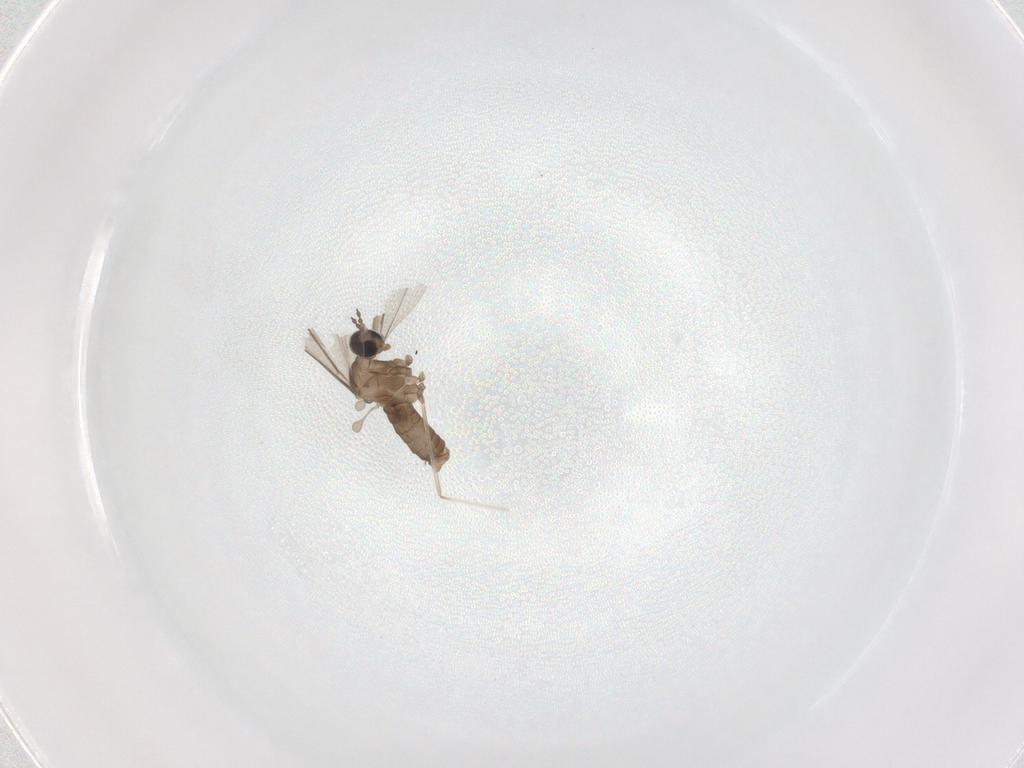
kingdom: Animalia
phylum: Arthropoda
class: Insecta
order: Diptera
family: Cecidomyiidae
